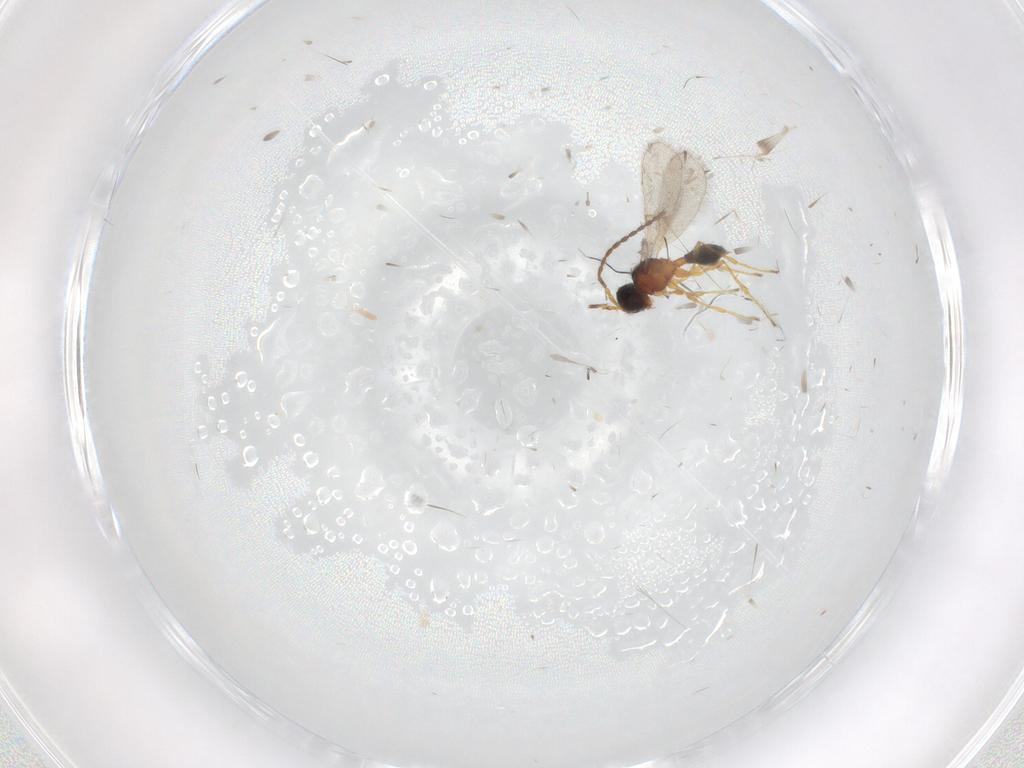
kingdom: Animalia
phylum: Arthropoda
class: Insecta
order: Hymenoptera
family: Diapriidae
